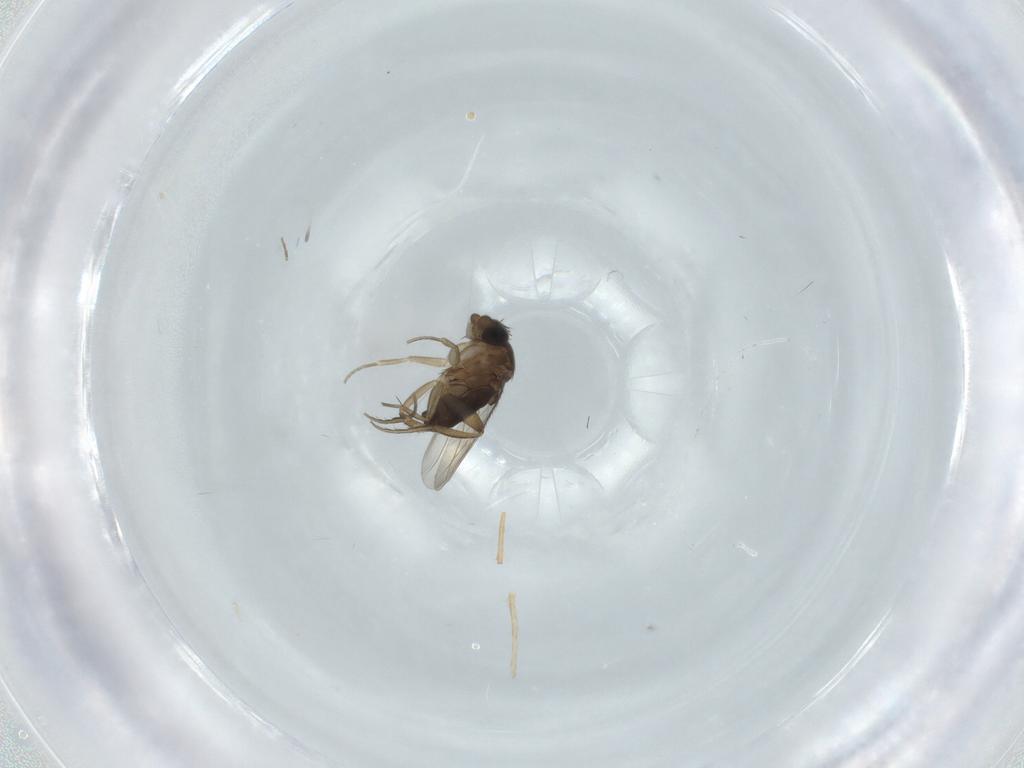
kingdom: Animalia
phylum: Arthropoda
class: Insecta
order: Diptera
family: Phoridae
